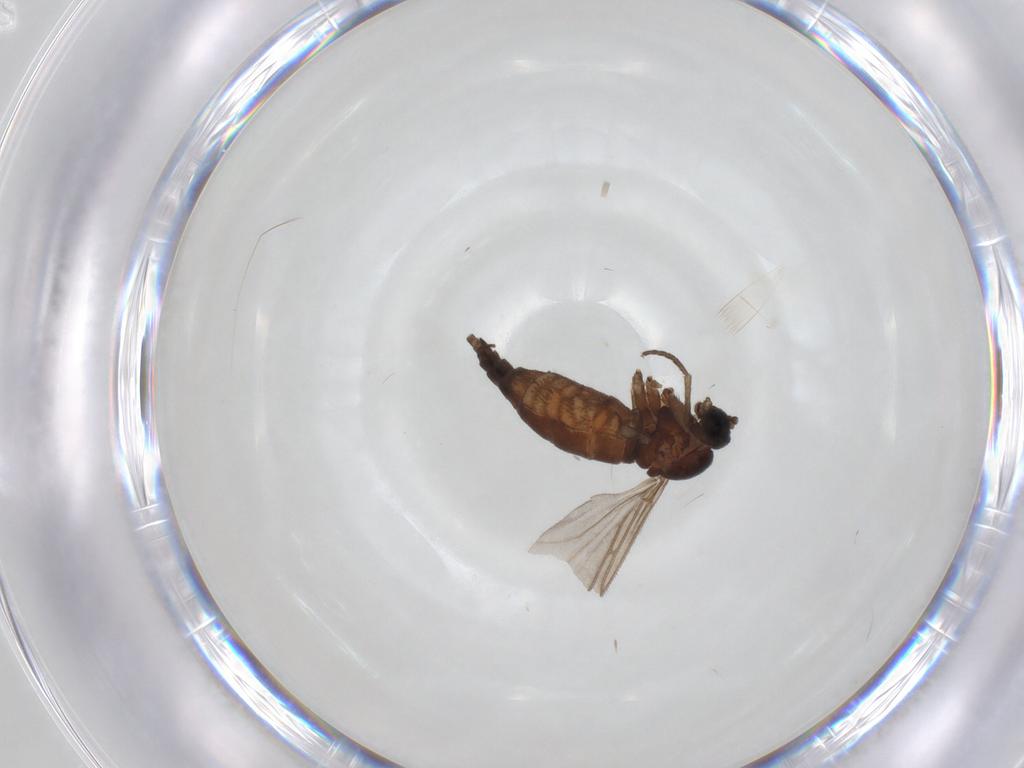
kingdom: Animalia
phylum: Arthropoda
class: Insecta
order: Diptera
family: Sciaridae
